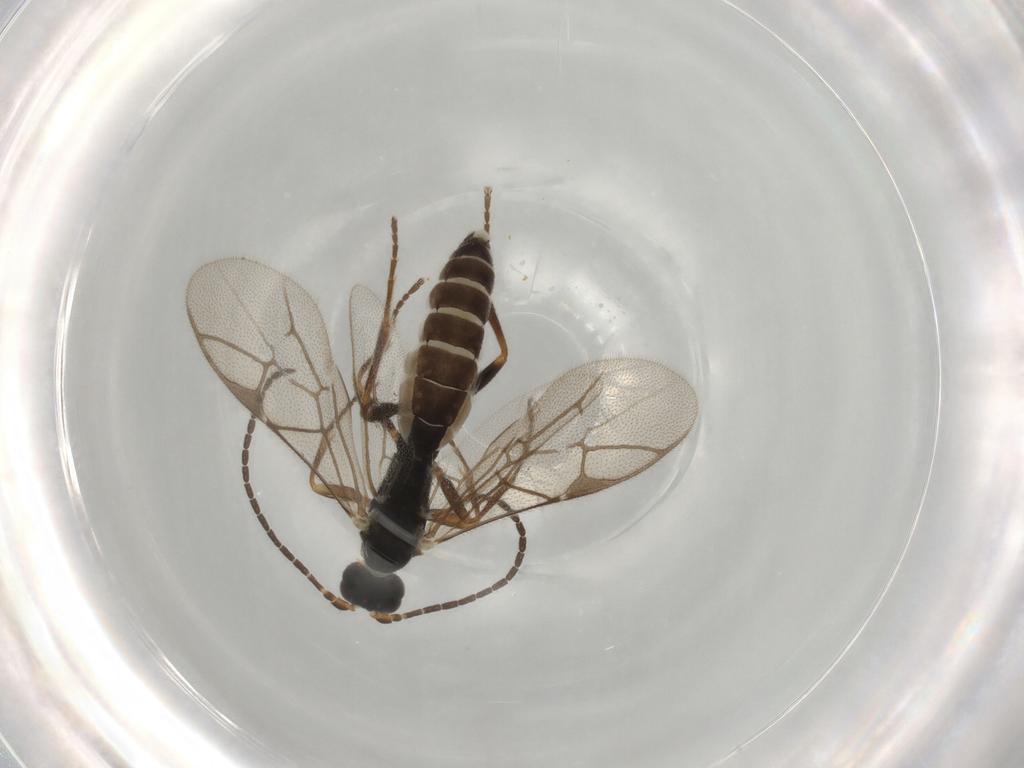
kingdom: Animalia
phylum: Arthropoda
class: Insecta
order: Hymenoptera
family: Ichneumonidae
